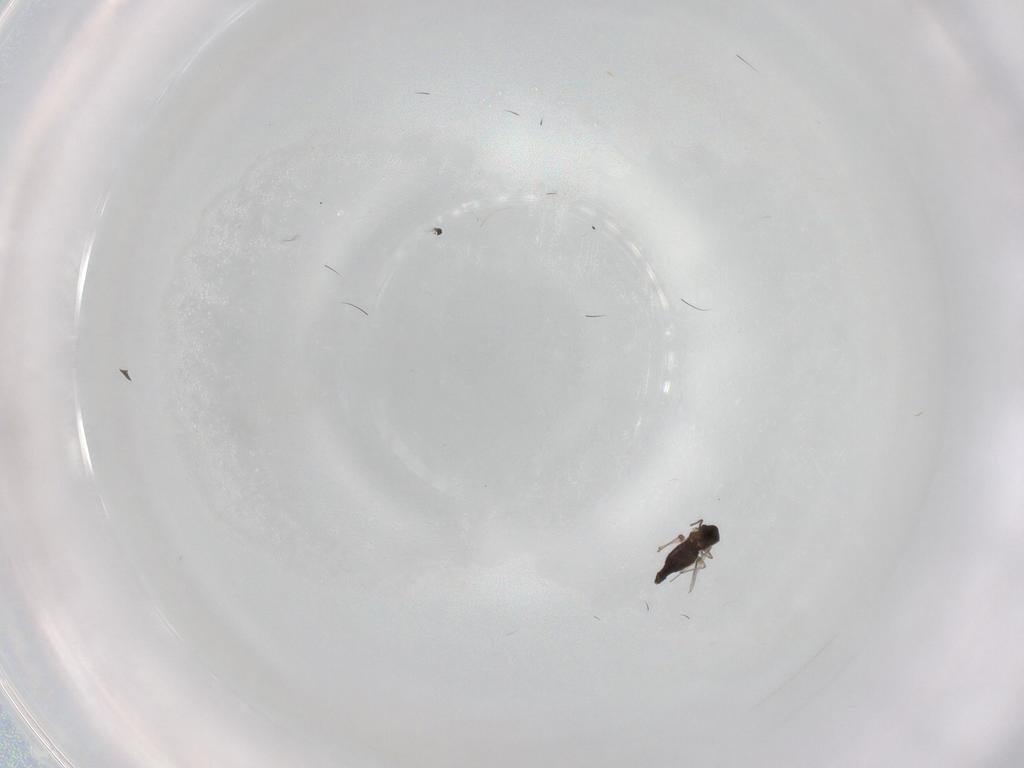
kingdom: Animalia
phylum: Arthropoda
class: Insecta
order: Diptera
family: Chironomidae
